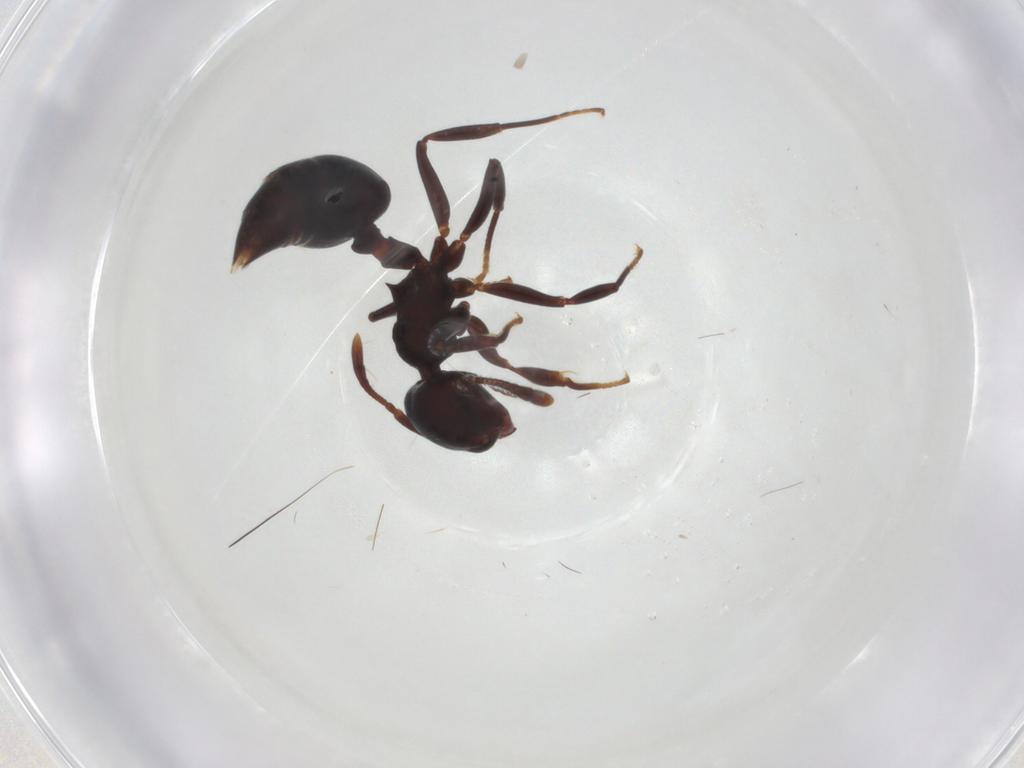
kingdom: Animalia
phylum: Arthropoda
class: Insecta
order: Hymenoptera
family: Formicidae
